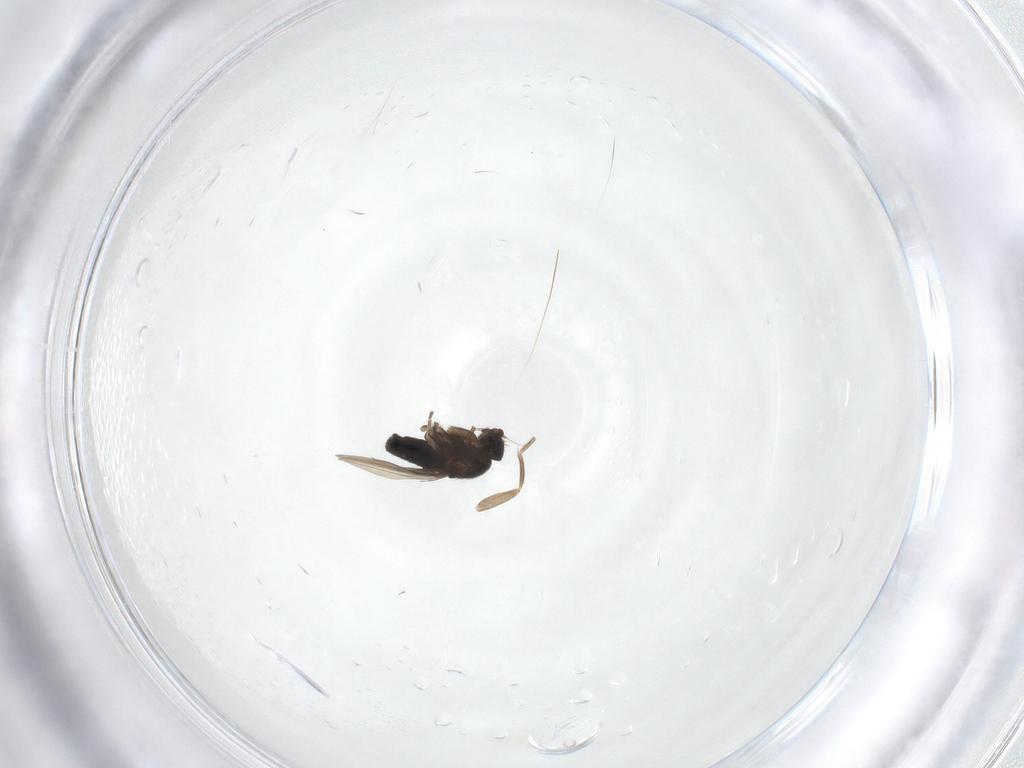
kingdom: Animalia
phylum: Arthropoda
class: Insecta
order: Diptera
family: Phoridae
